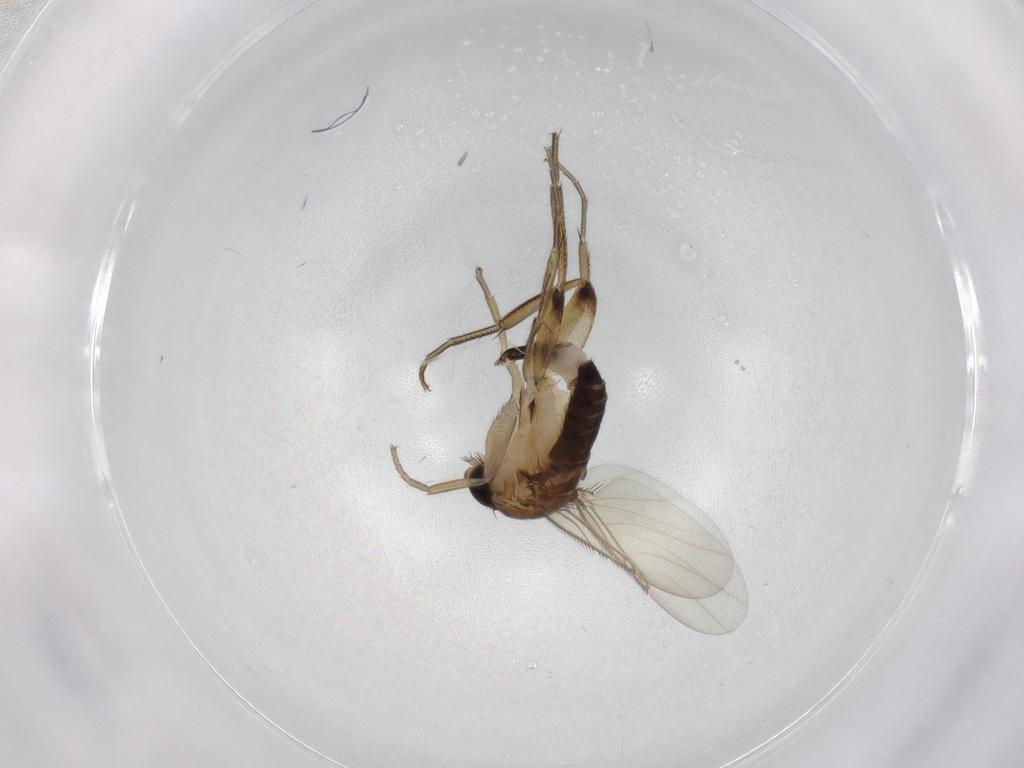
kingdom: Animalia
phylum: Arthropoda
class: Insecta
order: Diptera
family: Phoridae
